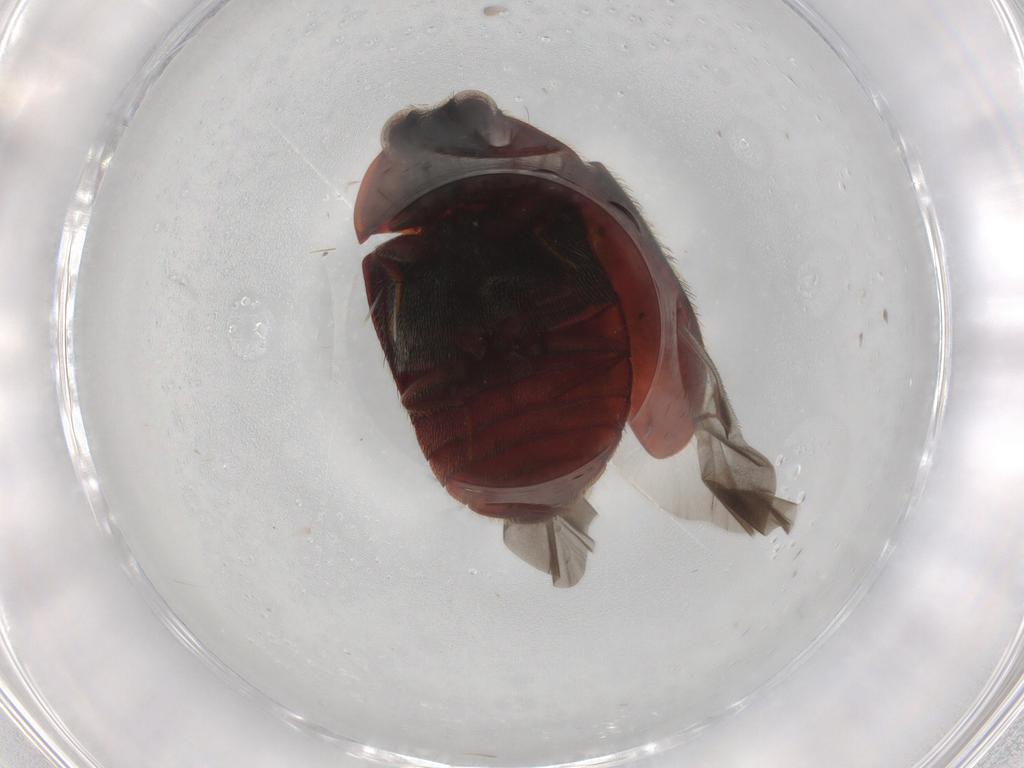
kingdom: Animalia
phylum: Arthropoda
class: Insecta
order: Coleoptera
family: Dermestidae
